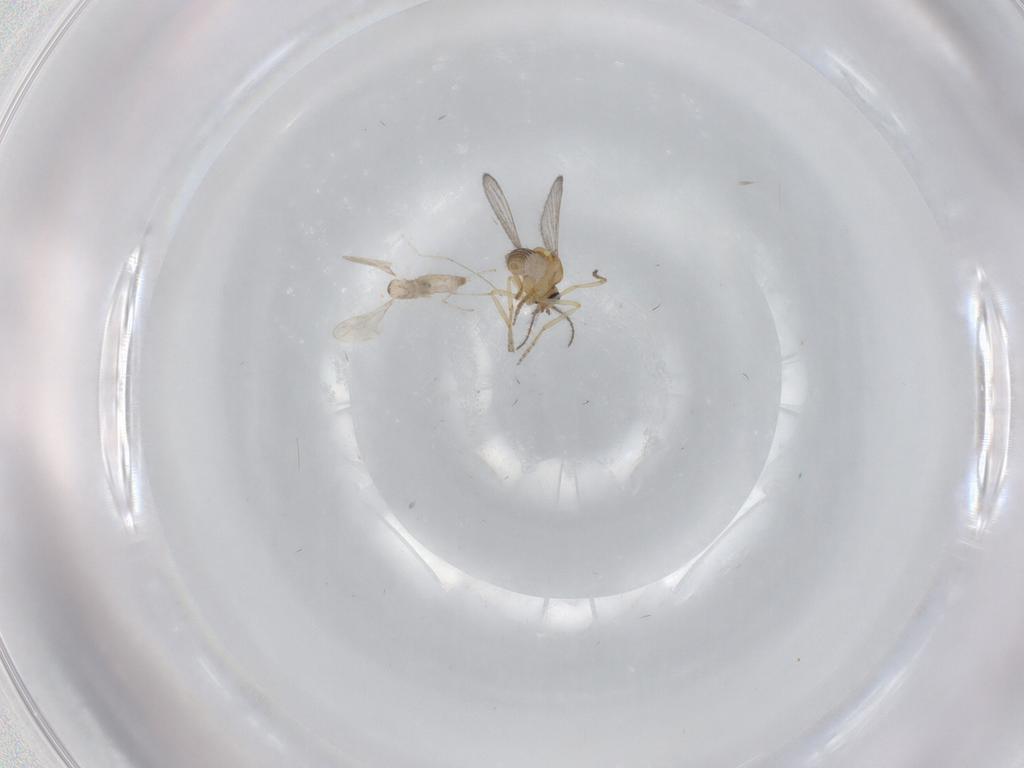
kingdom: Animalia
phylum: Arthropoda
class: Insecta
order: Diptera
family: Ceratopogonidae
